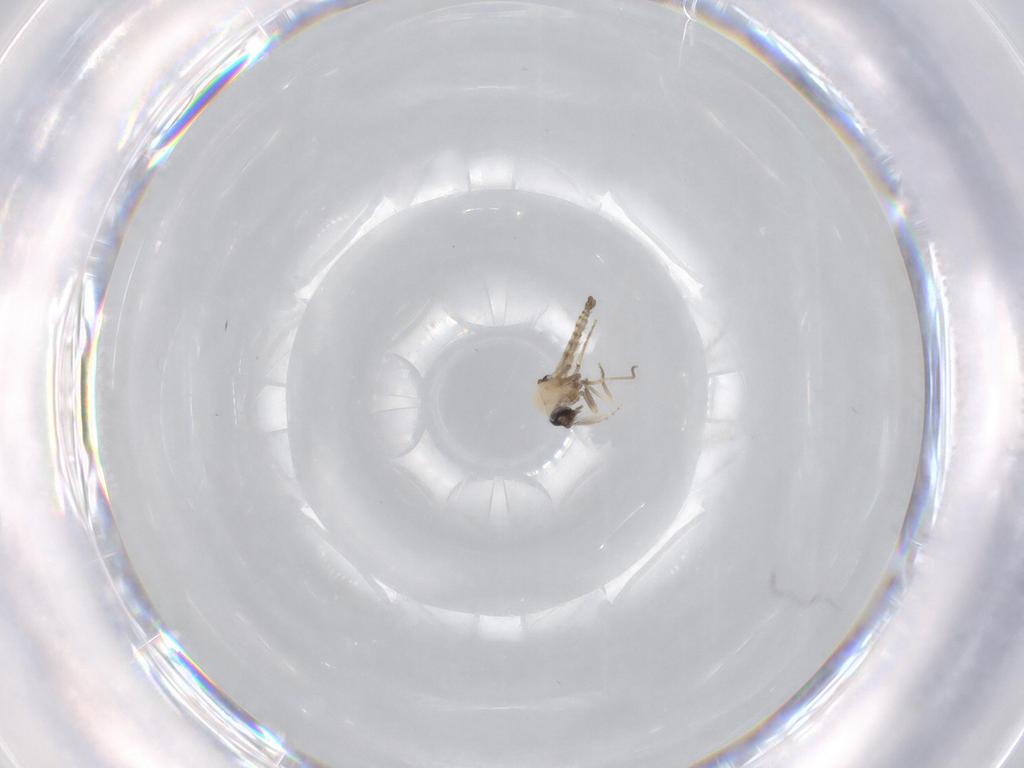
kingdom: Animalia
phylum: Arthropoda
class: Insecta
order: Diptera
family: Ceratopogonidae
